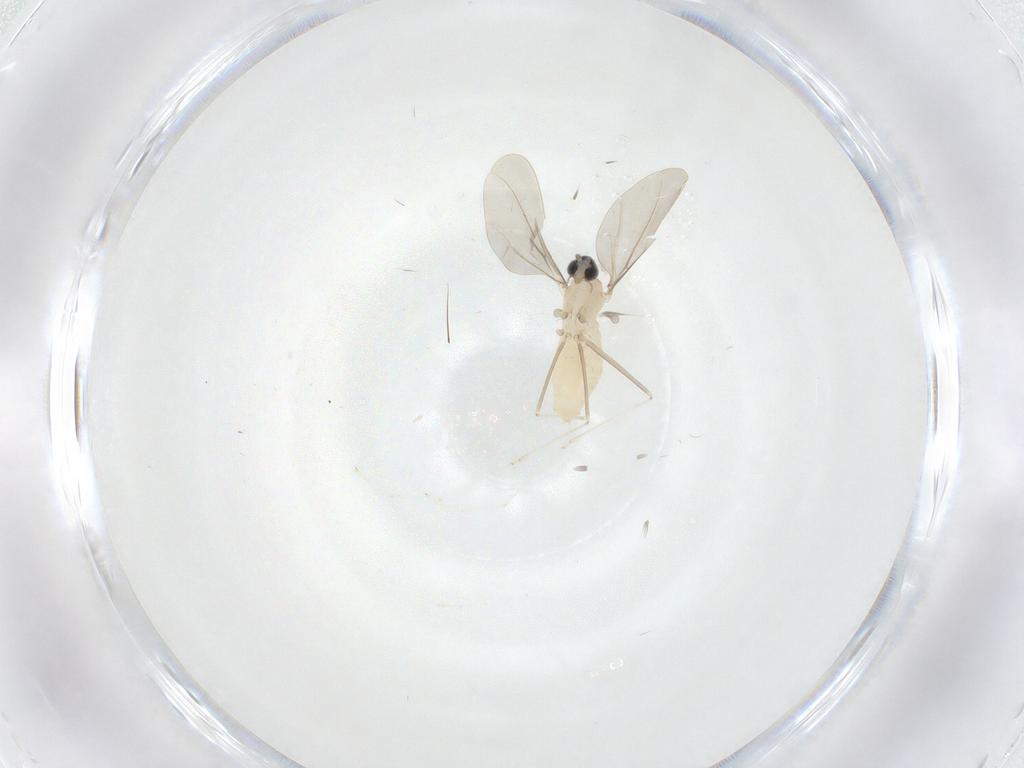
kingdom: Animalia
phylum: Arthropoda
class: Insecta
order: Diptera
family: Cecidomyiidae
